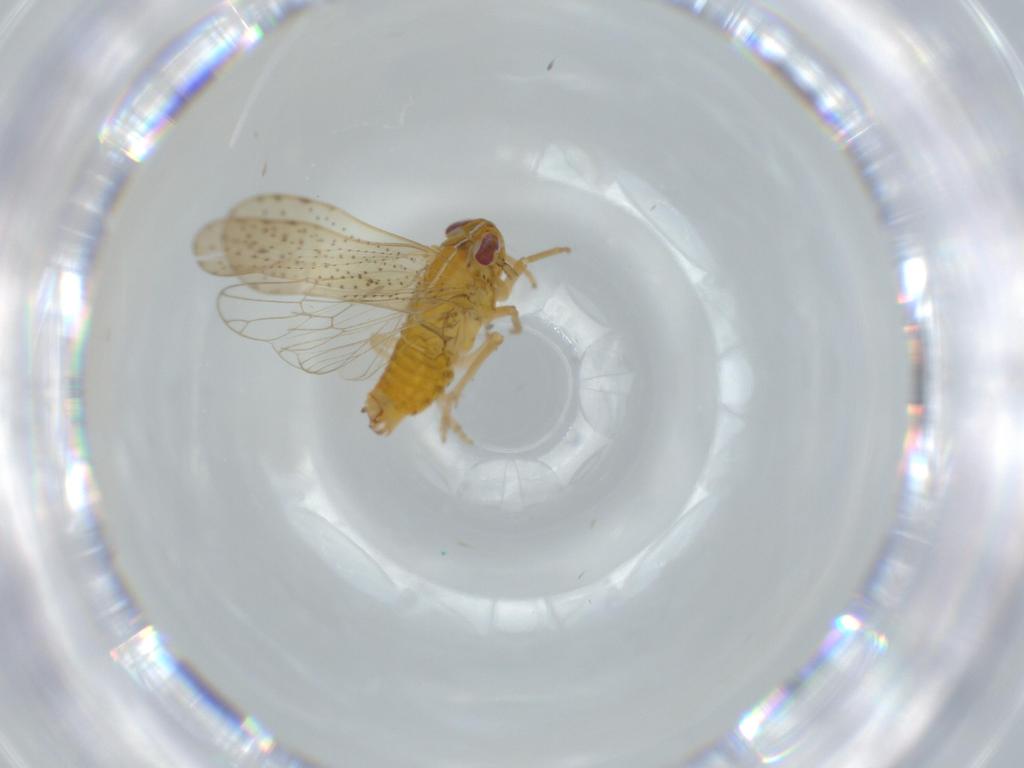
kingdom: Animalia
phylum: Arthropoda
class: Insecta
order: Hemiptera
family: Delphacidae
